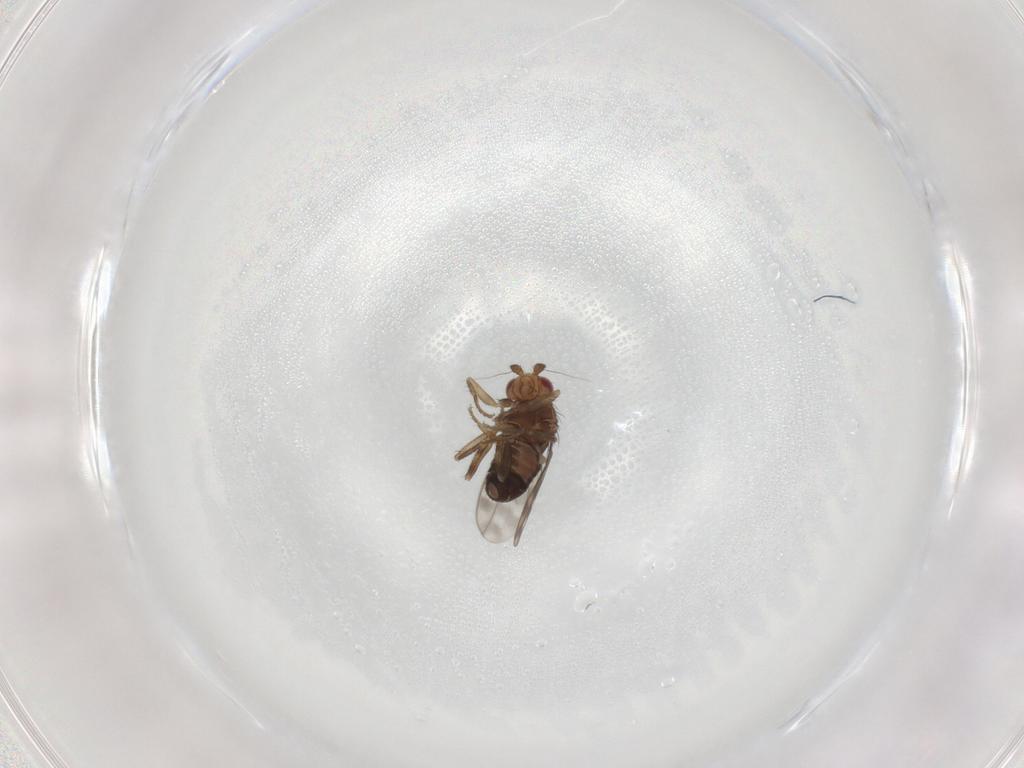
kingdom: Animalia
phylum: Arthropoda
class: Insecta
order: Diptera
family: Sphaeroceridae
